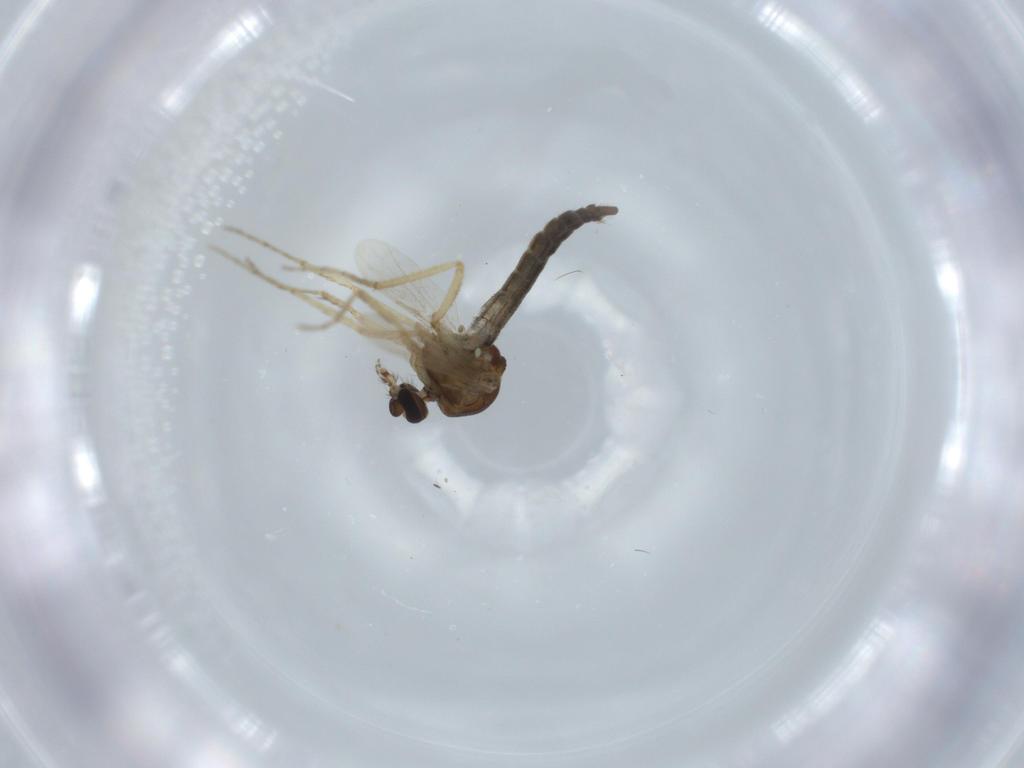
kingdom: Animalia
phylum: Arthropoda
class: Insecta
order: Diptera
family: Chironomidae
